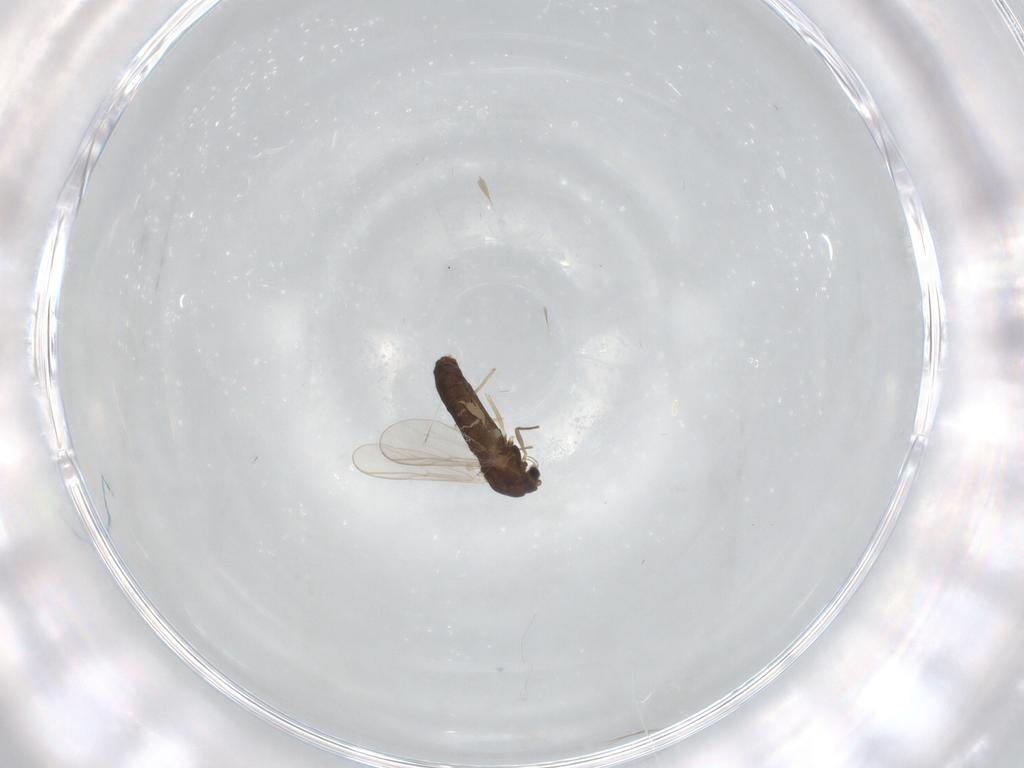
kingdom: Animalia
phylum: Arthropoda
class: Insecta
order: Diptera
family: Chironomidae
